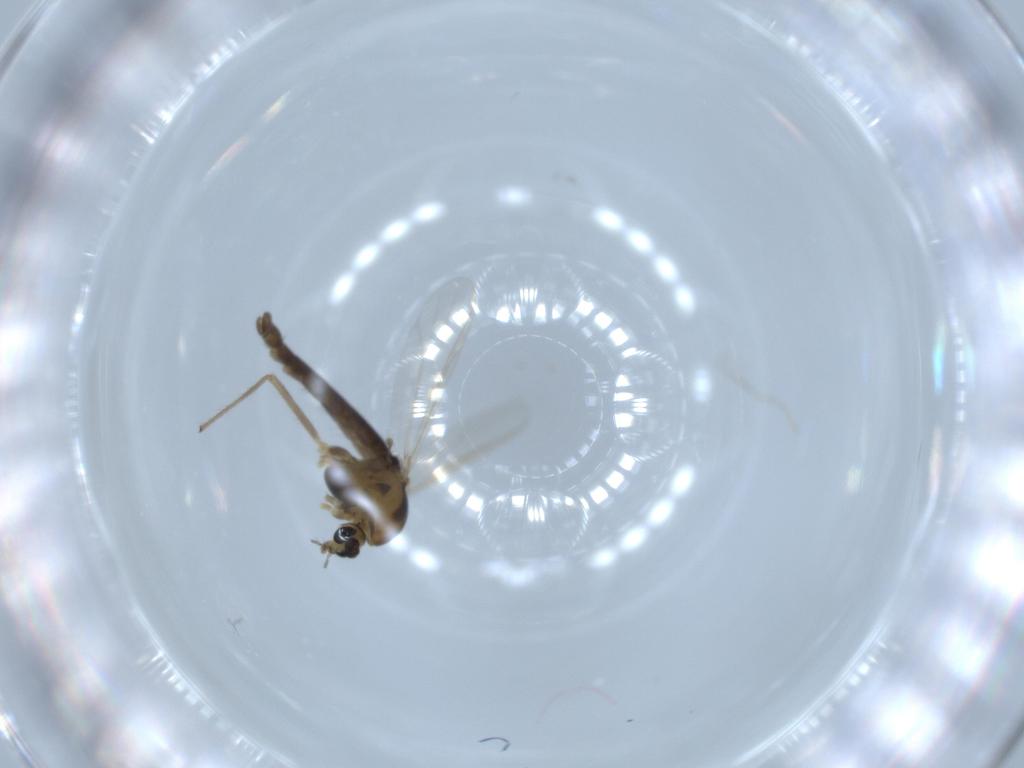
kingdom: Animalia
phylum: Arthropoda
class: Insecta
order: Diptera
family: Chironomidae
